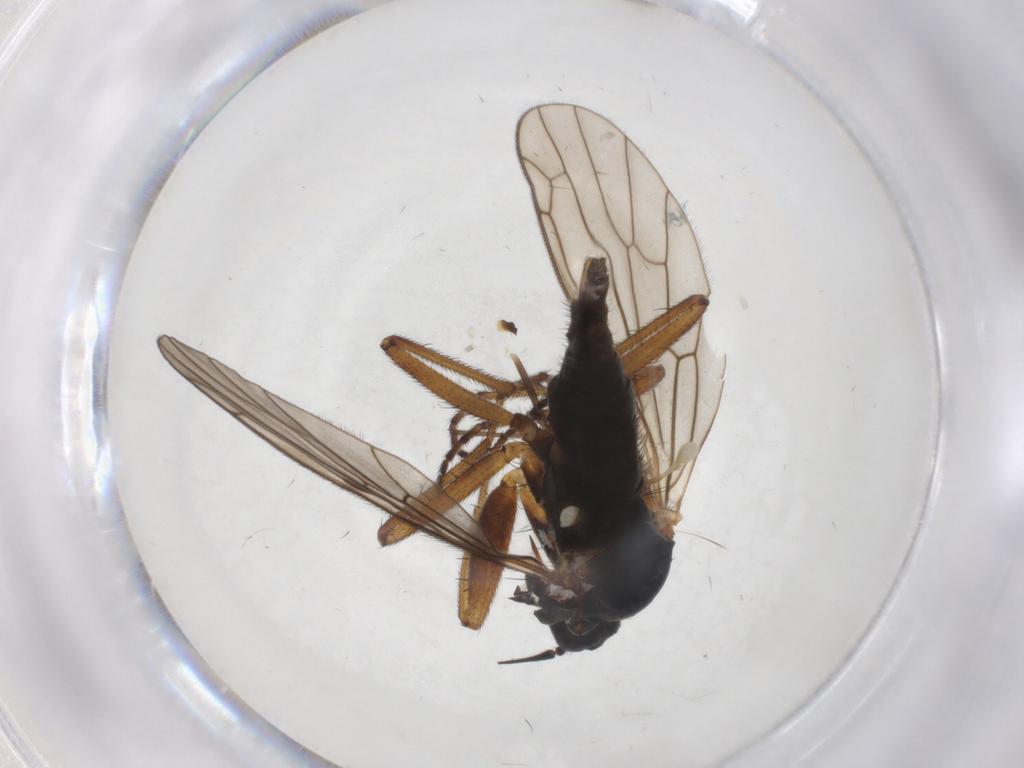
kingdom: Animalia
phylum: Arthropoda
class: Insecta
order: Diptera
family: Empididae
